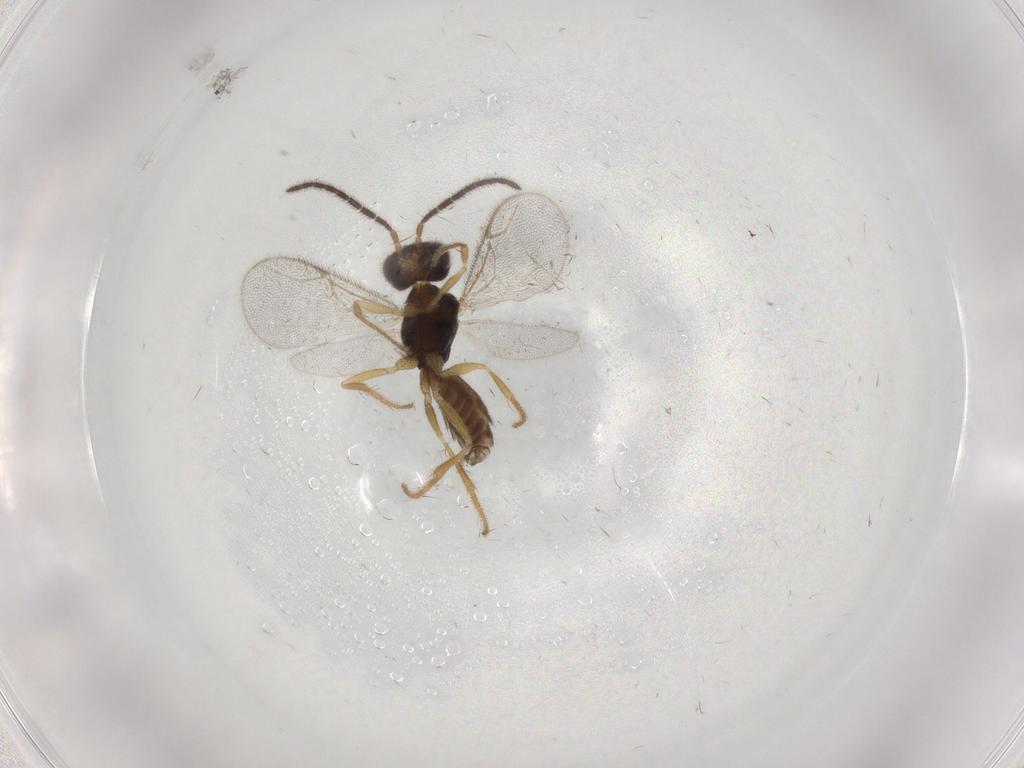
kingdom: Animalia
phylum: Arthropoda
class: Insecta
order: Hymenoptera
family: Dryinidae
